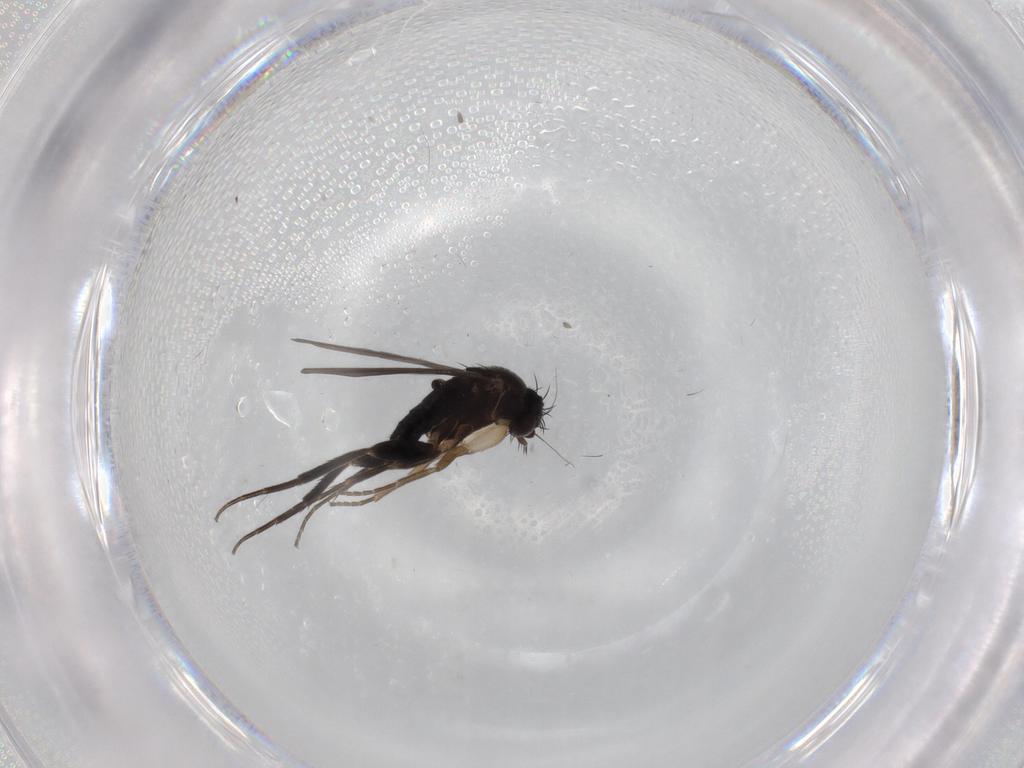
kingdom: Animalia
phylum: Arthropoda
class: Insecta
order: Diptera
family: Phoridae
